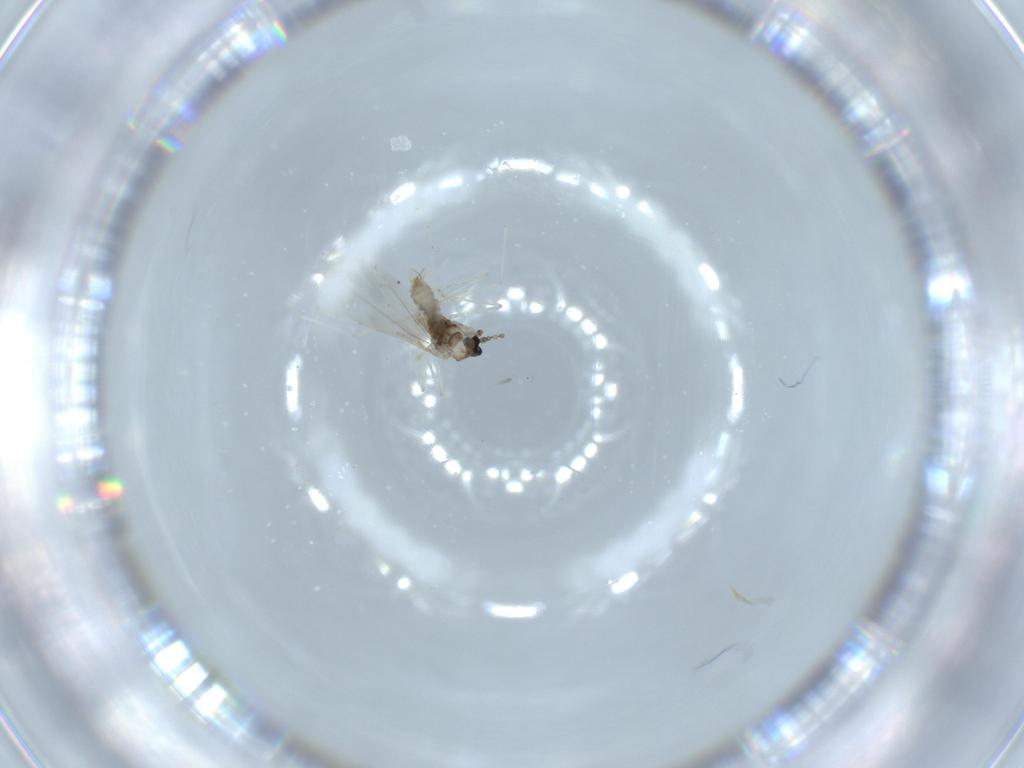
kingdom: Animalia
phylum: Arthropoda
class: Insecta
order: Diptera
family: Cecidomyiidae
